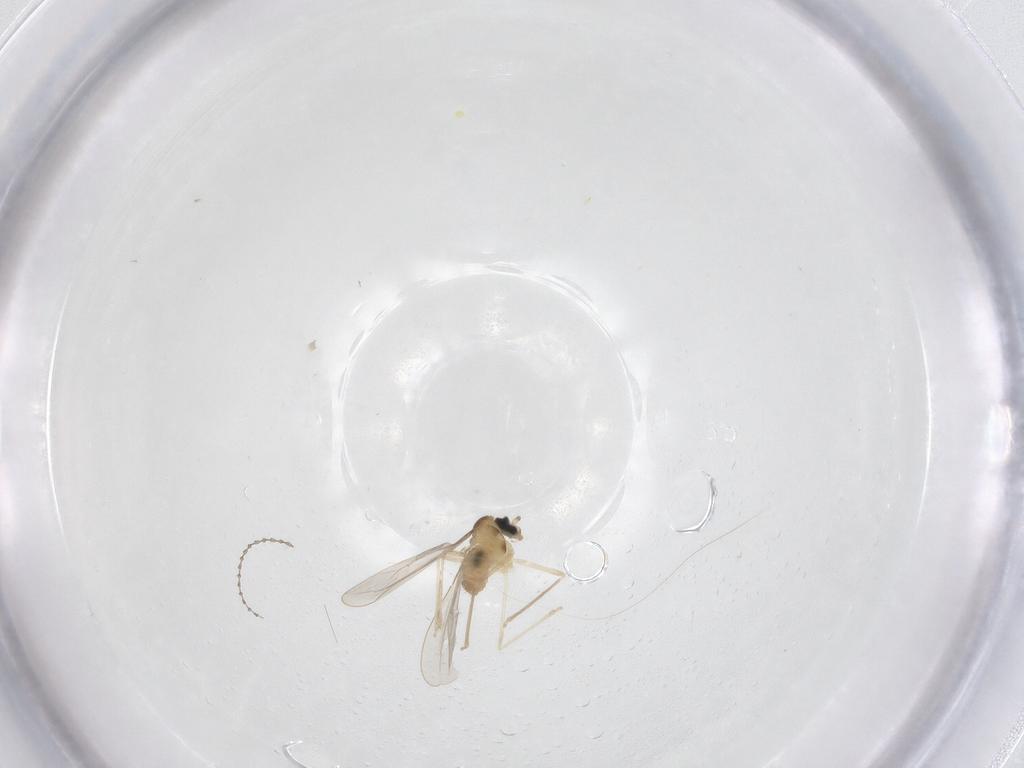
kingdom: Animalia
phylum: Arthropoda
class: Insecta
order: Diptera
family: Cecidomyiidae
